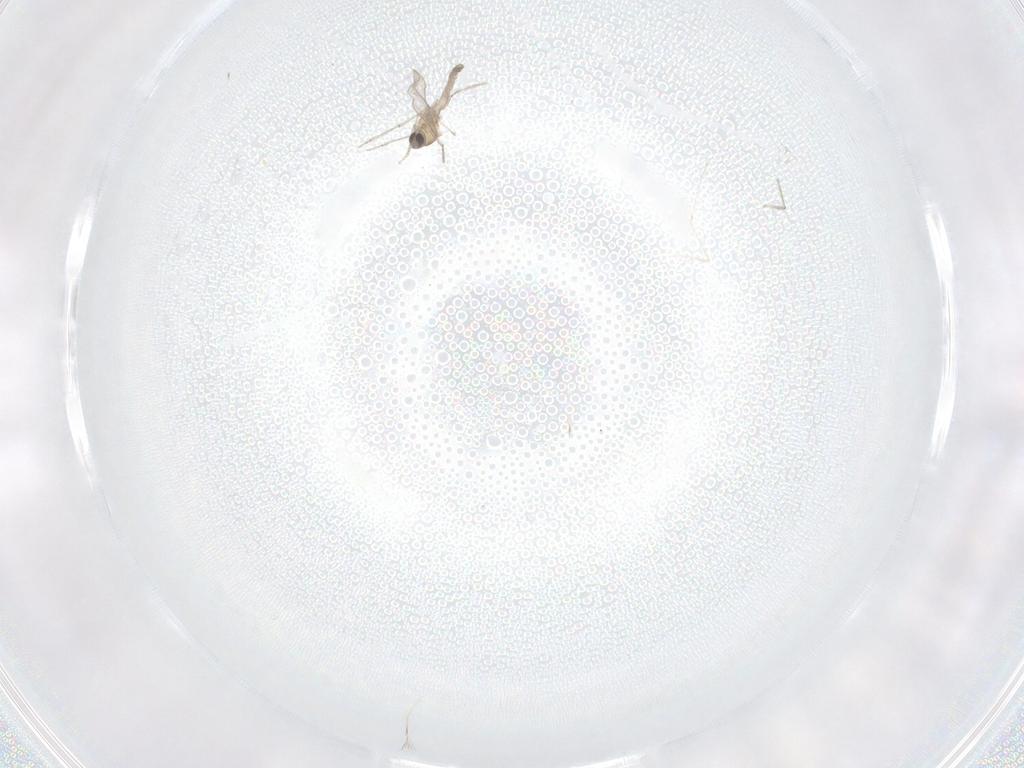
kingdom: Animalia
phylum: Arthropoda
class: Insecta
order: Diptera
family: Cecidomyiidae
